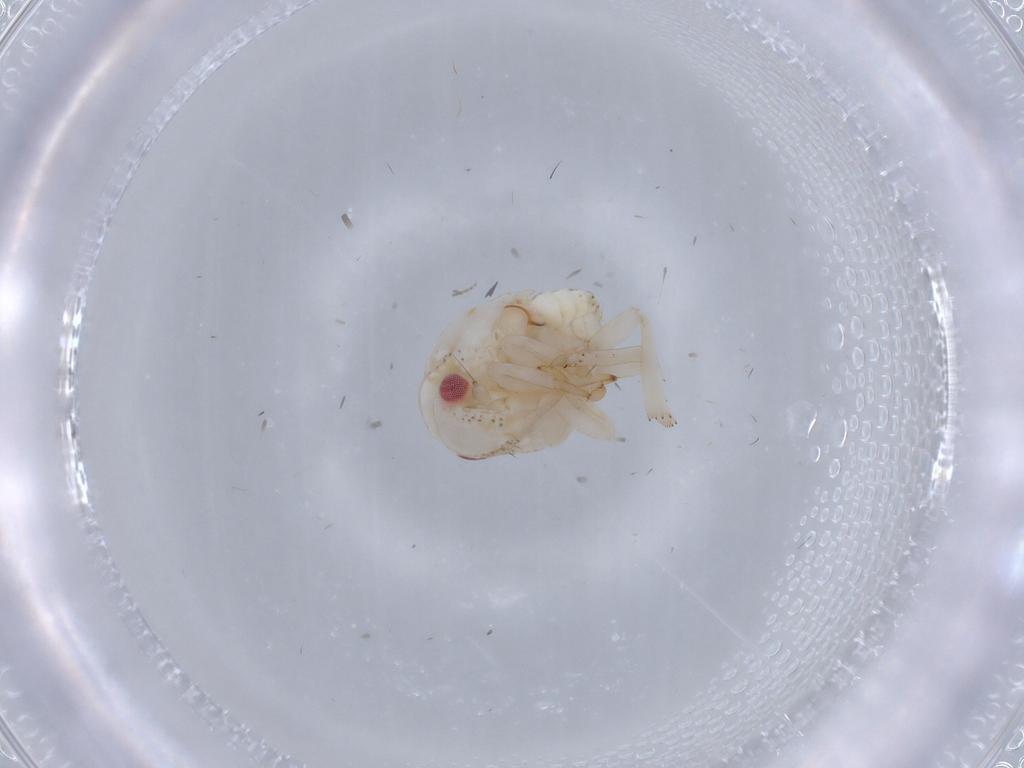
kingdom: Animalia
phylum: Arthropoda
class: Insecta
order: Hemiptera
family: Acanaloniidae
